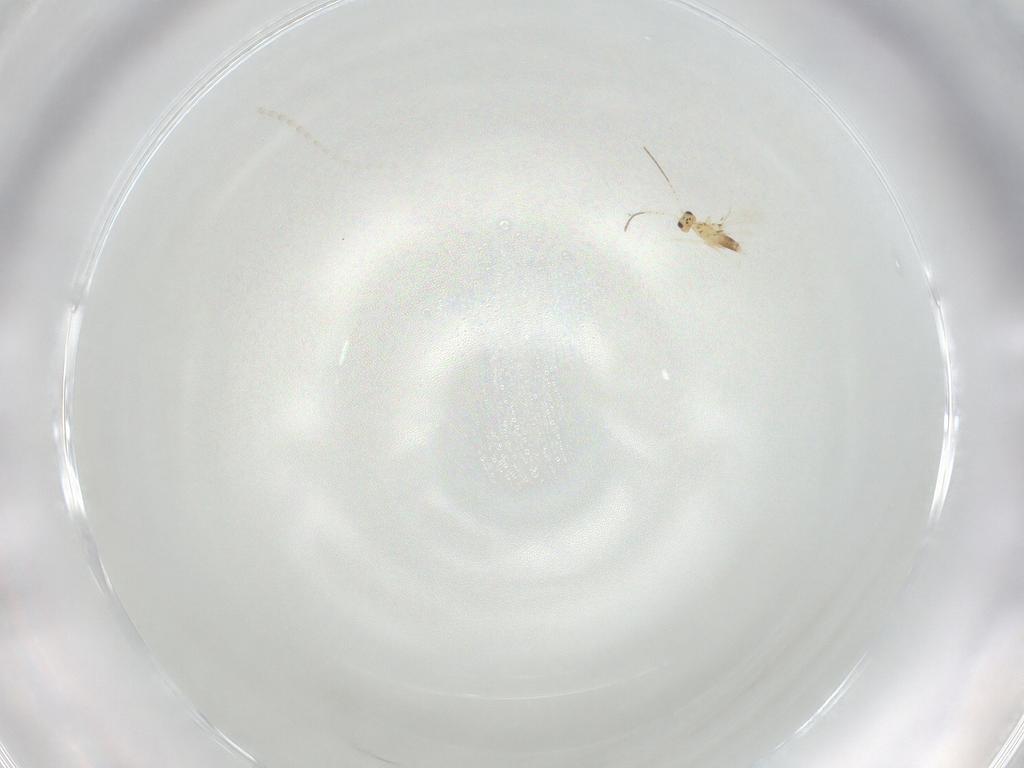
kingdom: Animalia
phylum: Arthropoda
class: Insecta
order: Hymenoptera
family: Mymaridae
